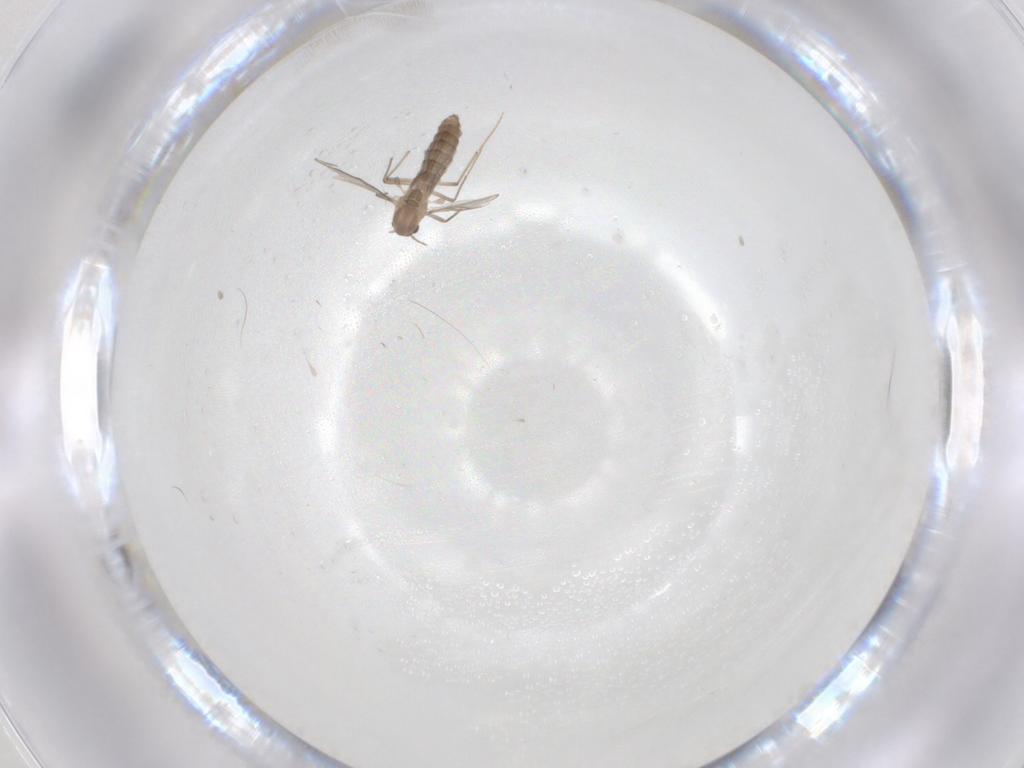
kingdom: Animalia
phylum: Arthropoda
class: Insecta
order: Diptera
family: Chironomidae
